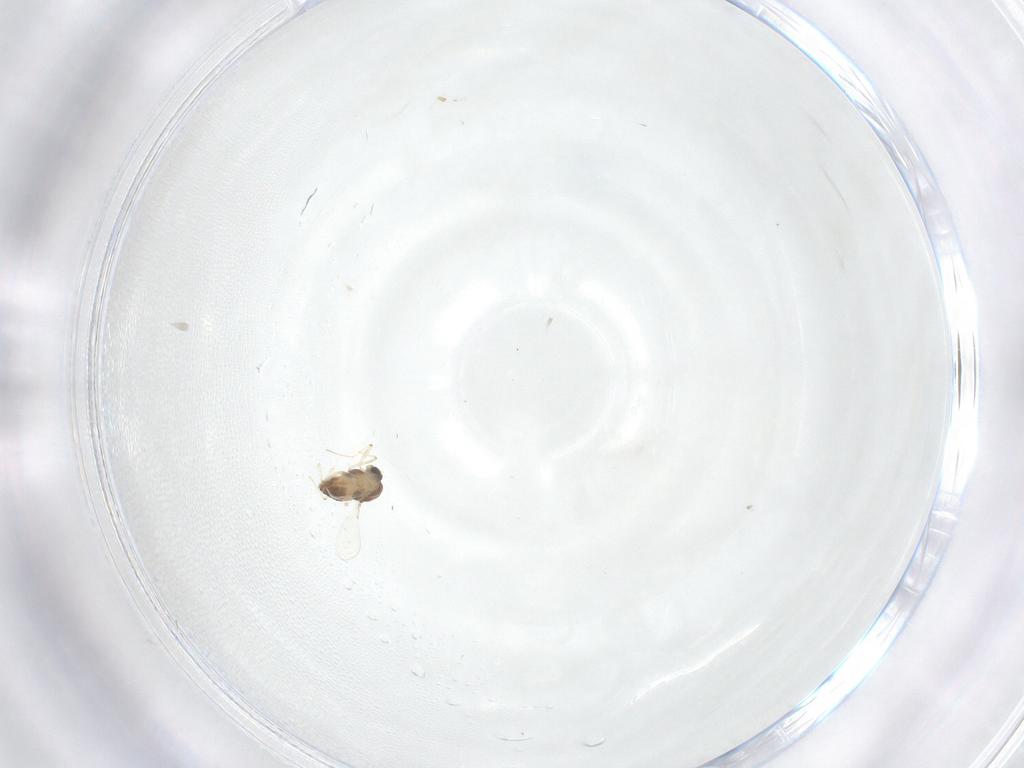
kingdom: Animalia
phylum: Arthropoda
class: Insecta
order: Diptera
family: Chironomidae
